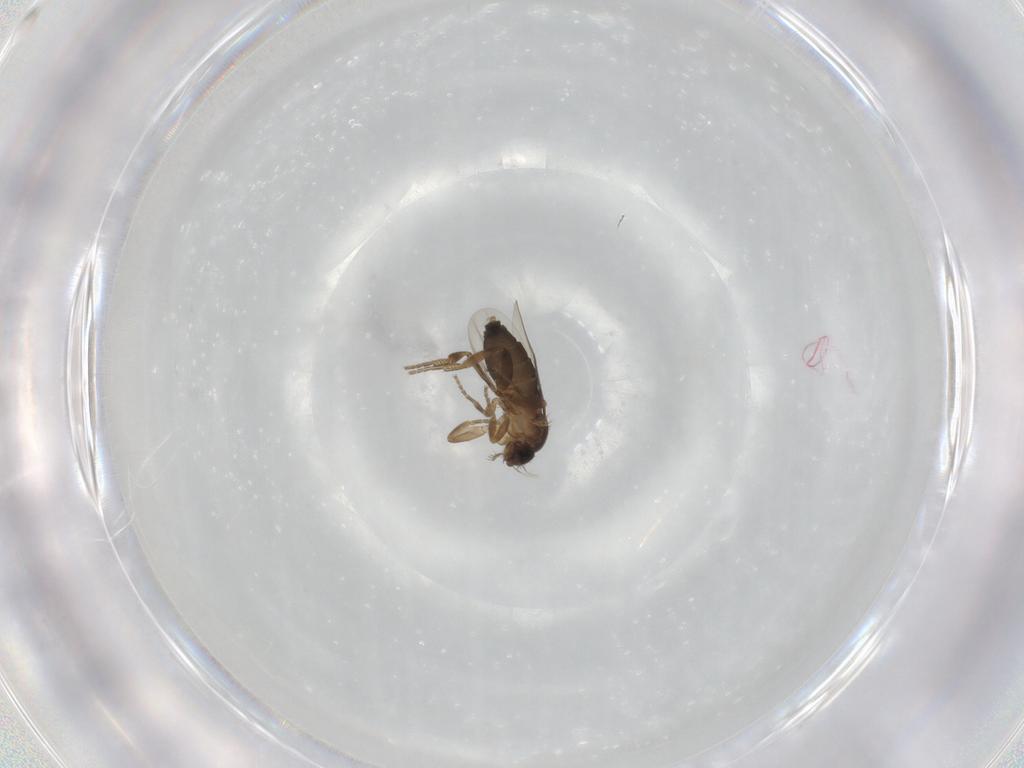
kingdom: Animalia
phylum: Arthropoda
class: Insecta
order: Diptera
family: Phoridae
